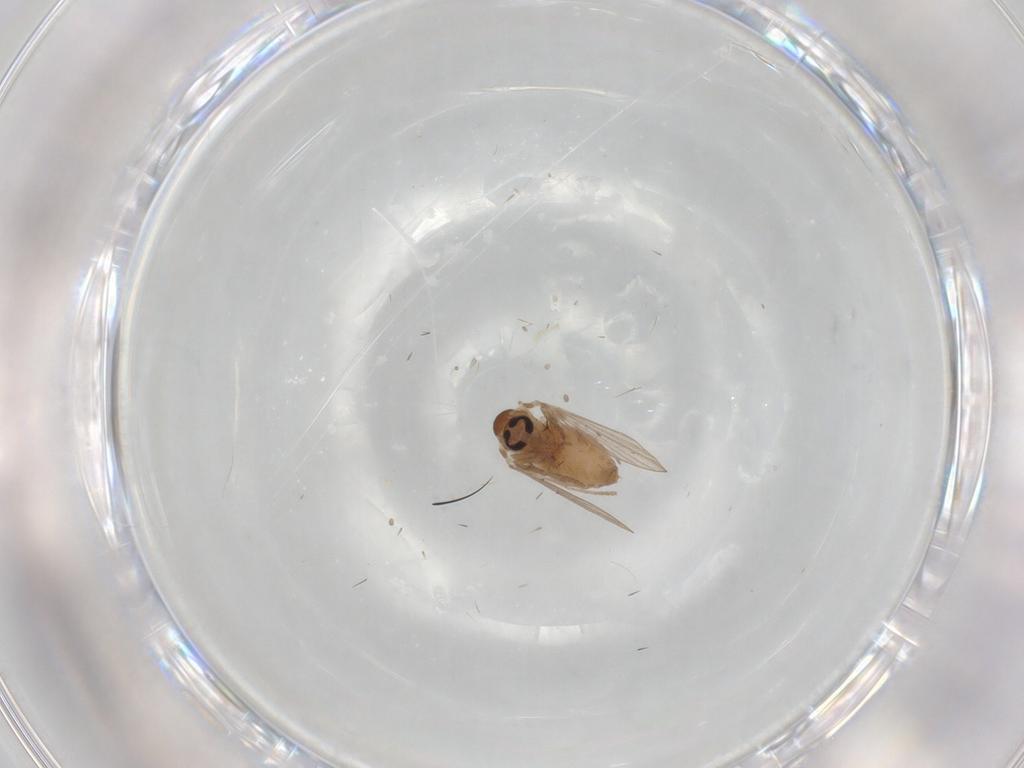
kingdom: Animalia
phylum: Arthropoda
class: Insecta
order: Diptera
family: Psychodidae
